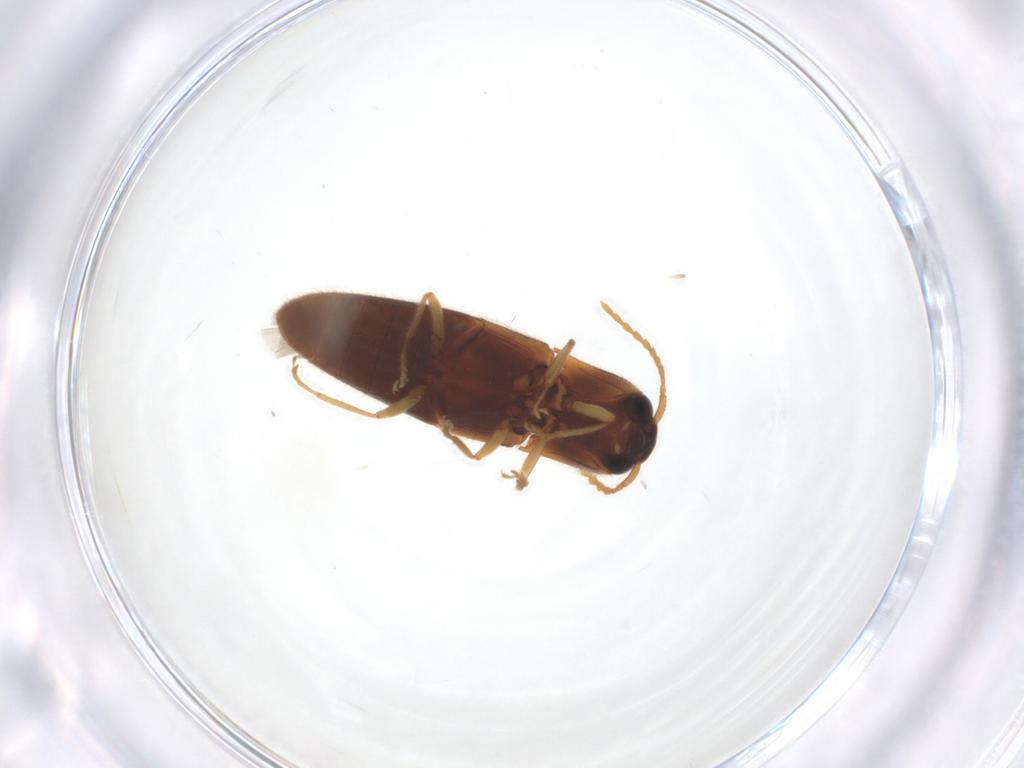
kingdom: Animalia
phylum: Arthropoda
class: Insecta
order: Coleoptera
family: Elateridae
